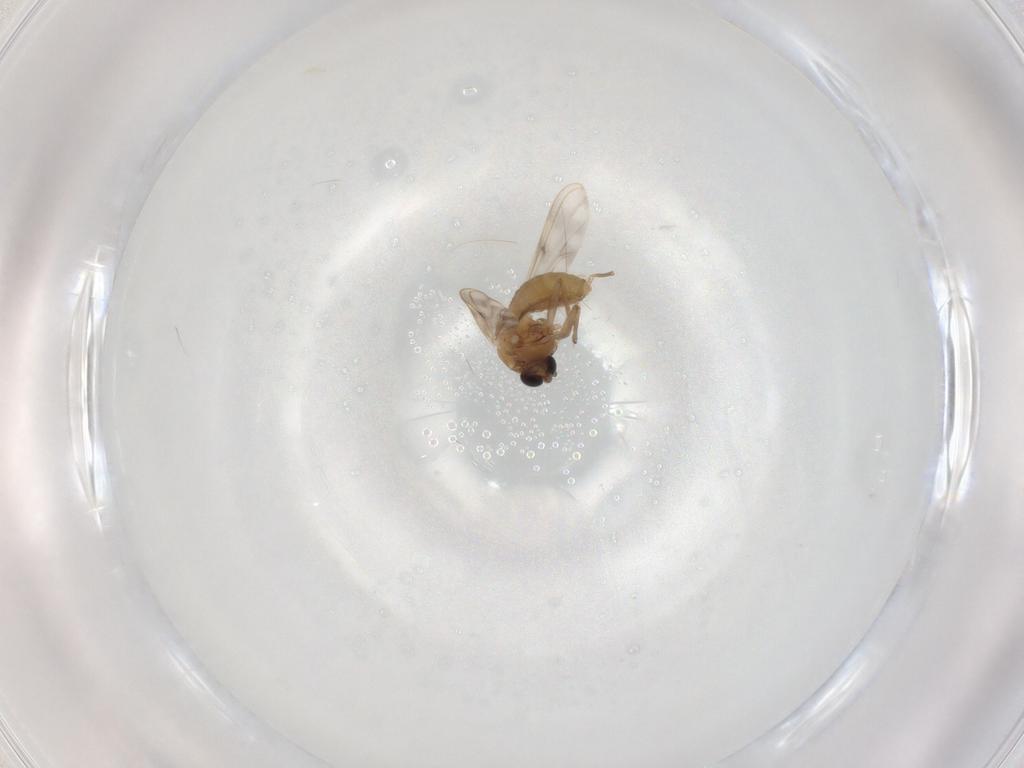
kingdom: Animalia
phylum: Arthropoda
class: Insecta
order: Diptera
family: Chironomidae
